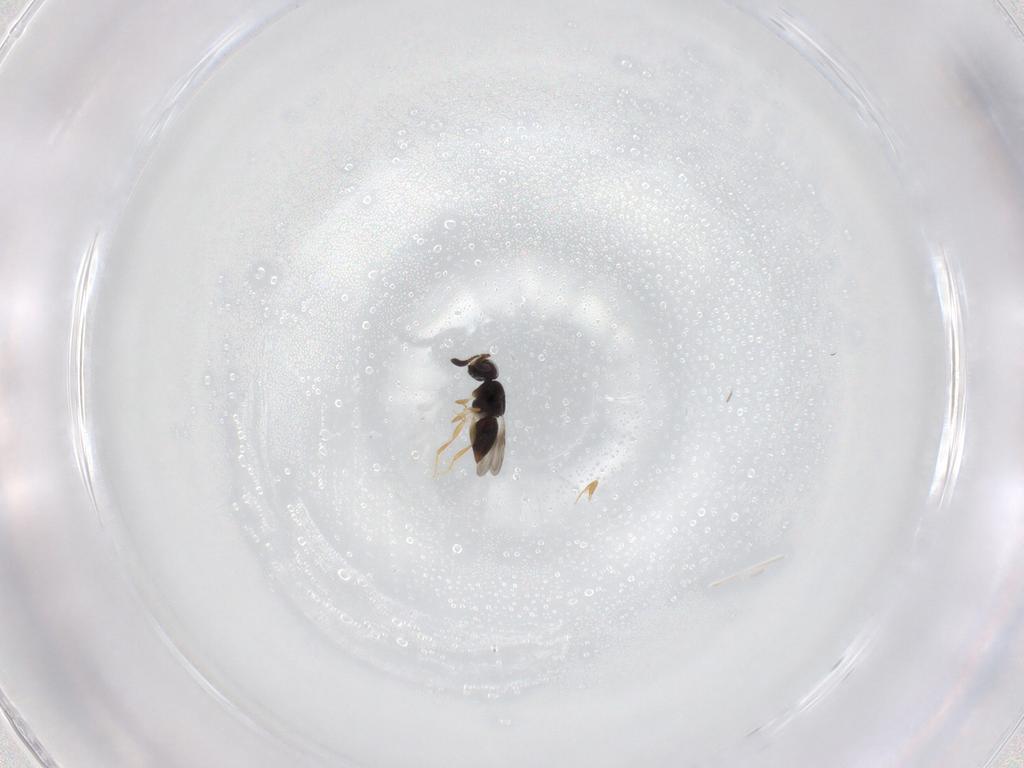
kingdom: Animalia
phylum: Arthropoda
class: Insecta
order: Hymenoptera
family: Ceraphronidae
